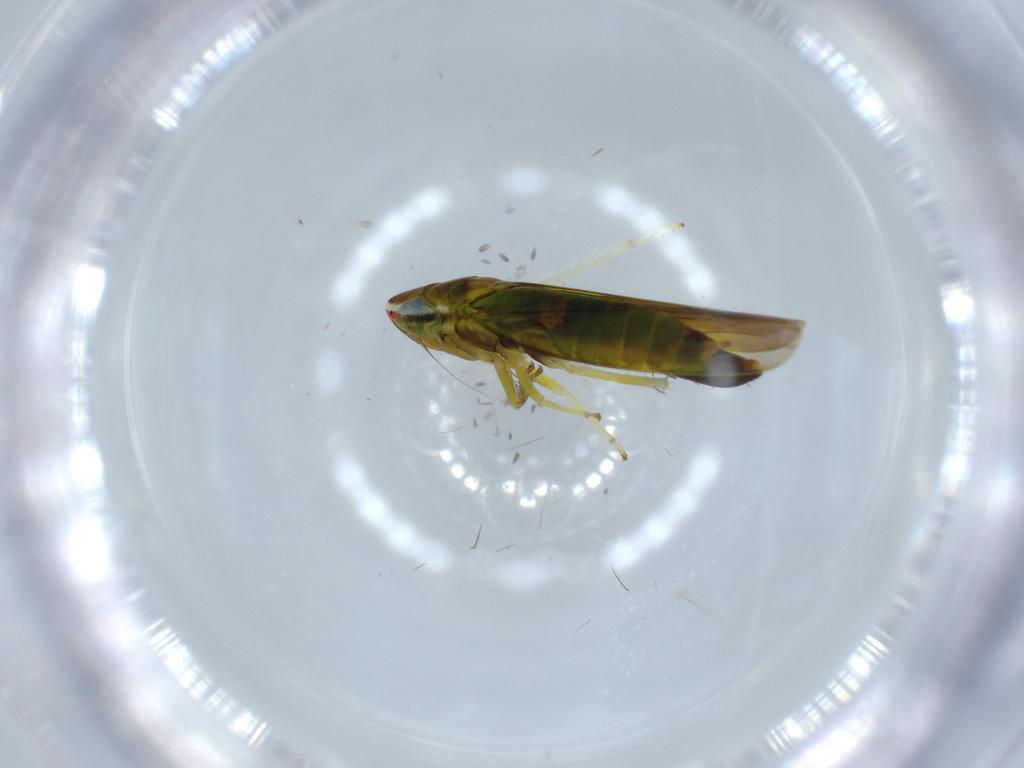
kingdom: Animalia
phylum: Arthropoda
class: Insecta
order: Hemiptera
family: Cicadellidae
